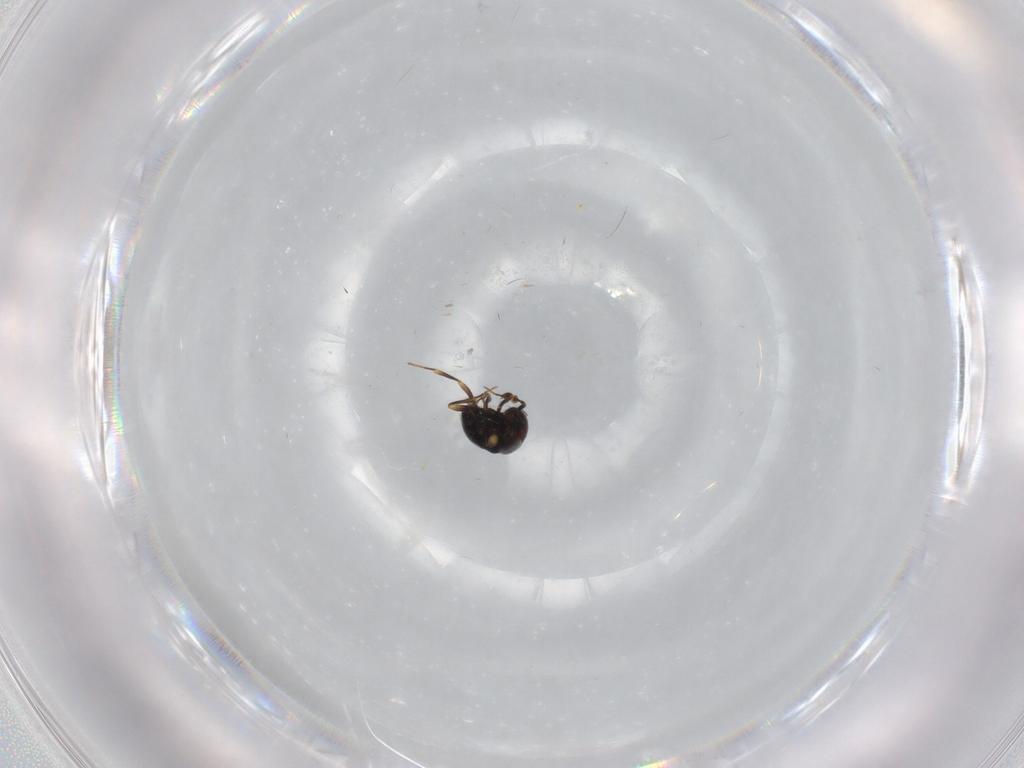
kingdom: Animalia
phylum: Arthropoda
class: Insecta
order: Hymenoptera
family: Scelionidae
